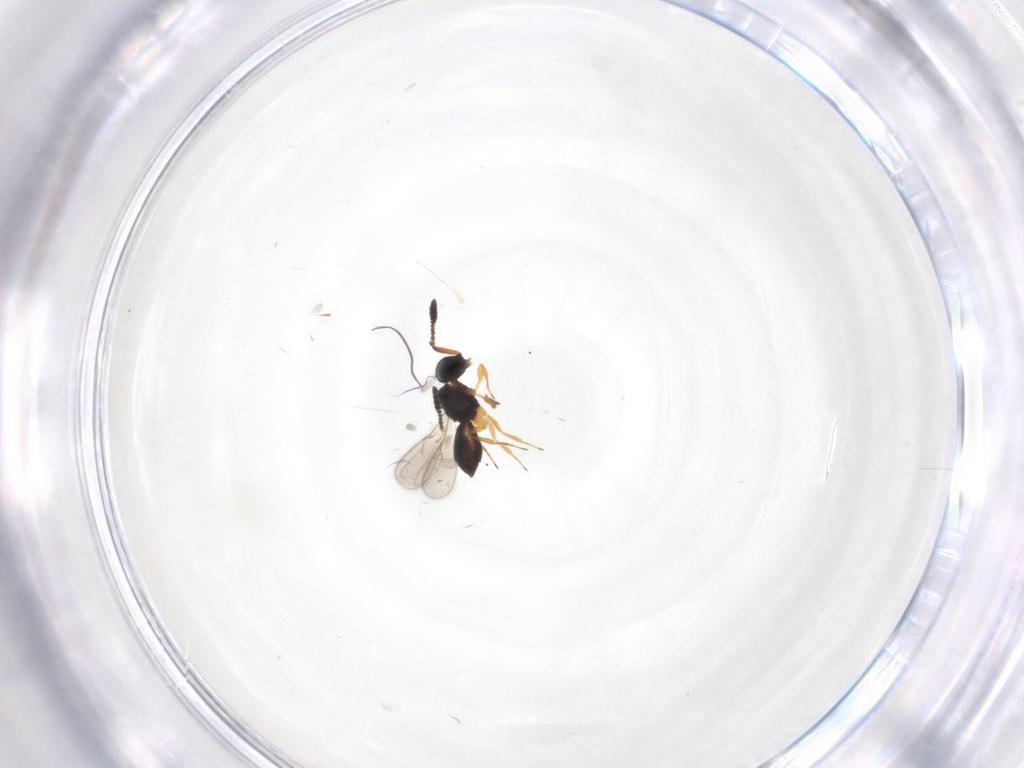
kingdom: Animalia
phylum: Arthropoda
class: Insecta
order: Hymenoptera
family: Scelionidae
